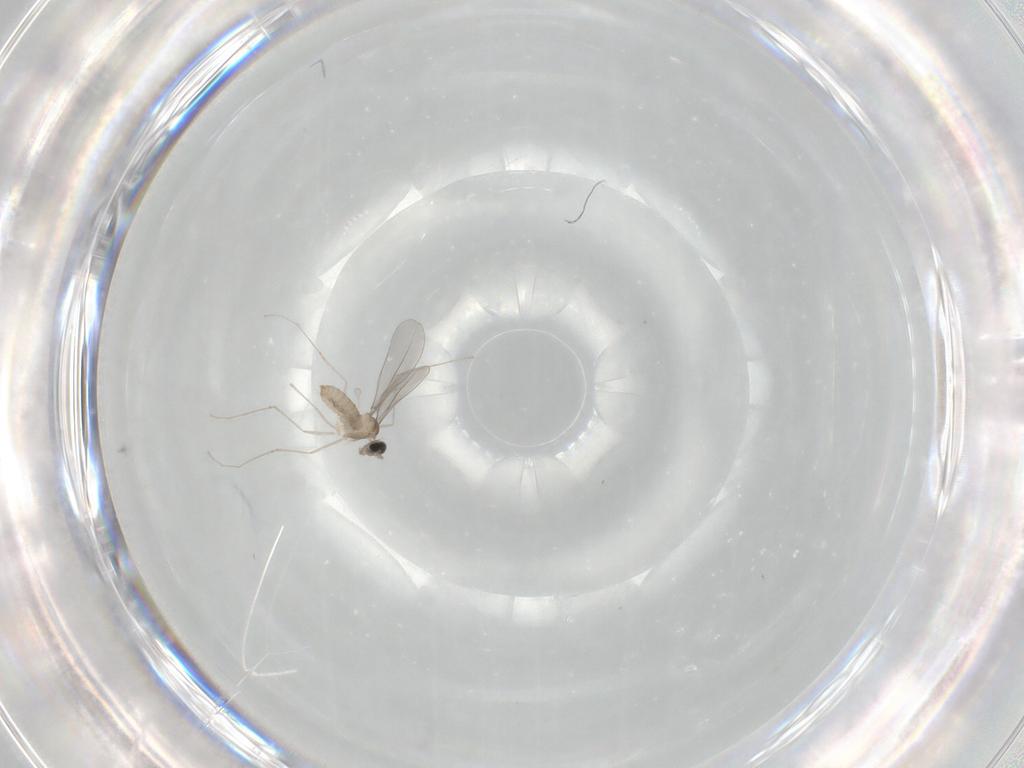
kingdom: Animalia
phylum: Arthropoda
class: Insecta
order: Diptera
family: Cecidomyiidae
